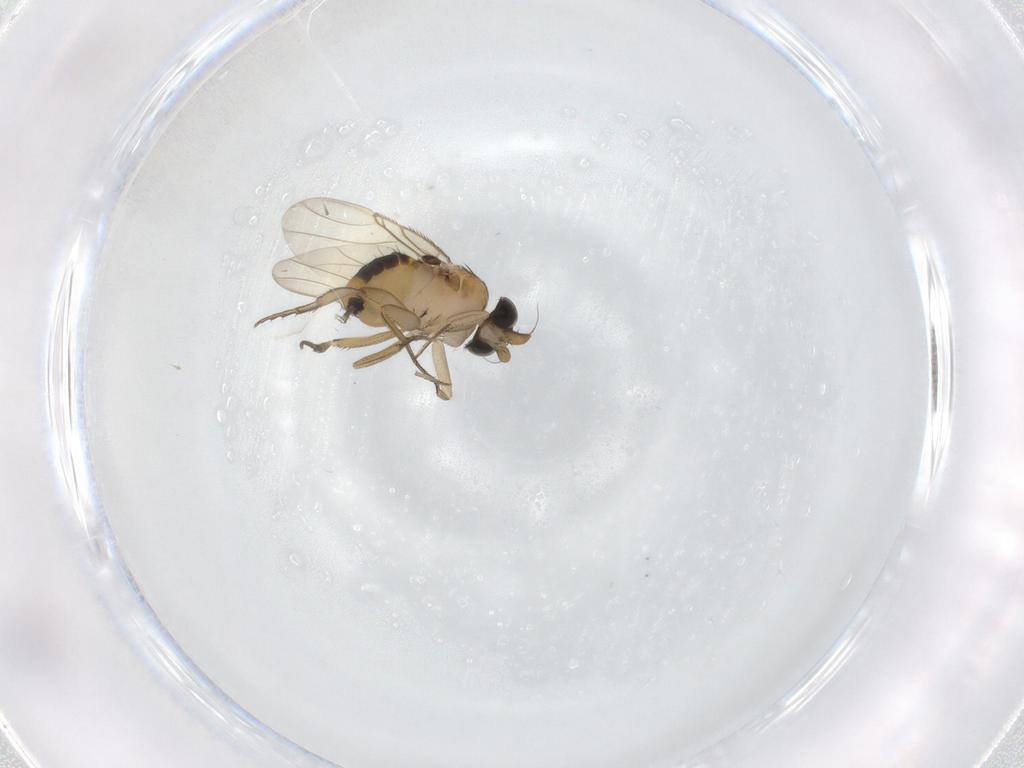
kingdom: Animalia
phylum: Arthropoda
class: Insecta
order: Diptera
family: Phoridae
